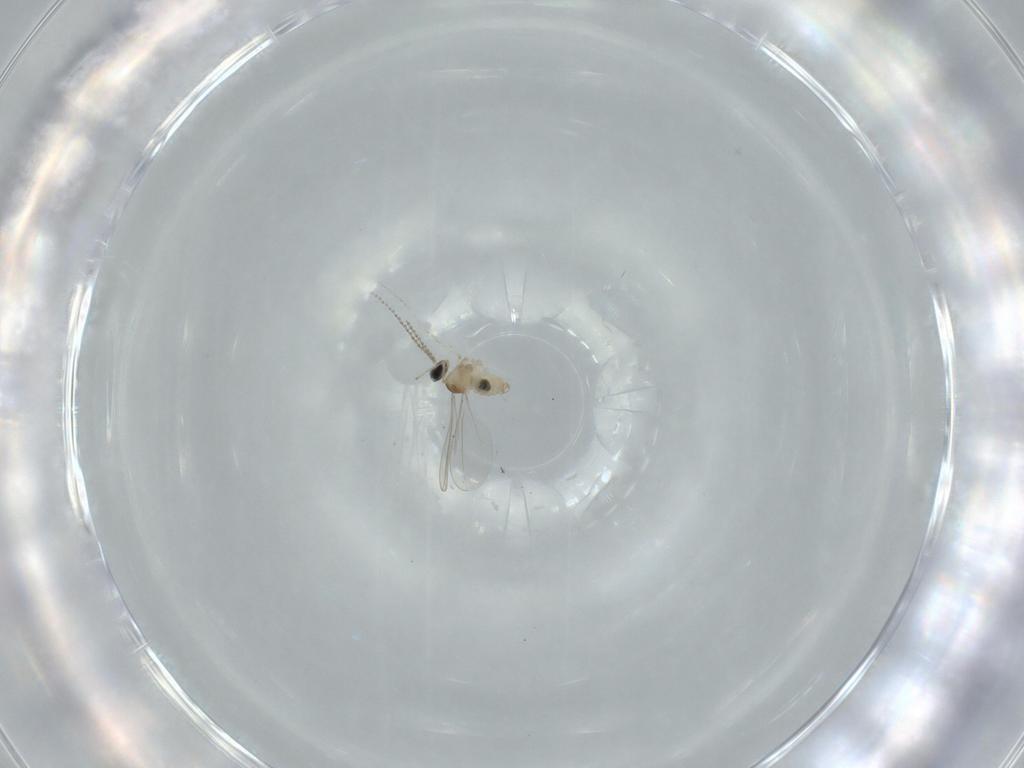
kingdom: Animalia
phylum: Arthropoda
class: Insecta
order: Diptera
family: Cecidomyiidae
